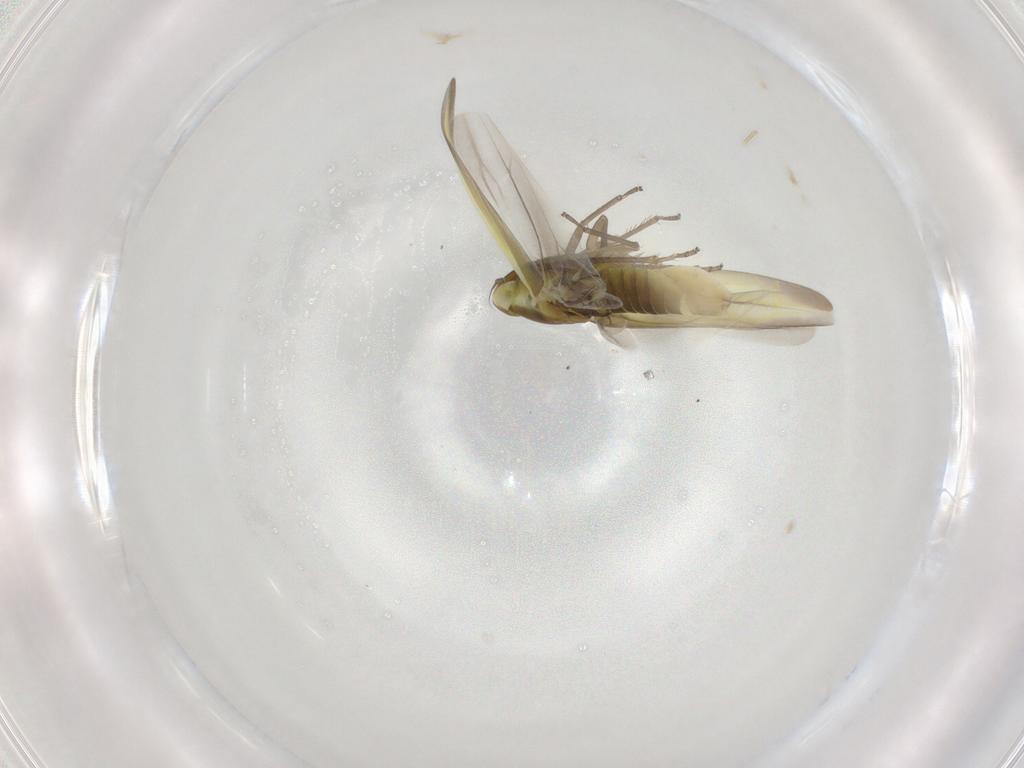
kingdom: Animalia
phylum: Arthropoda
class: Insecta
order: Hemiptera
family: Cicadellidae
